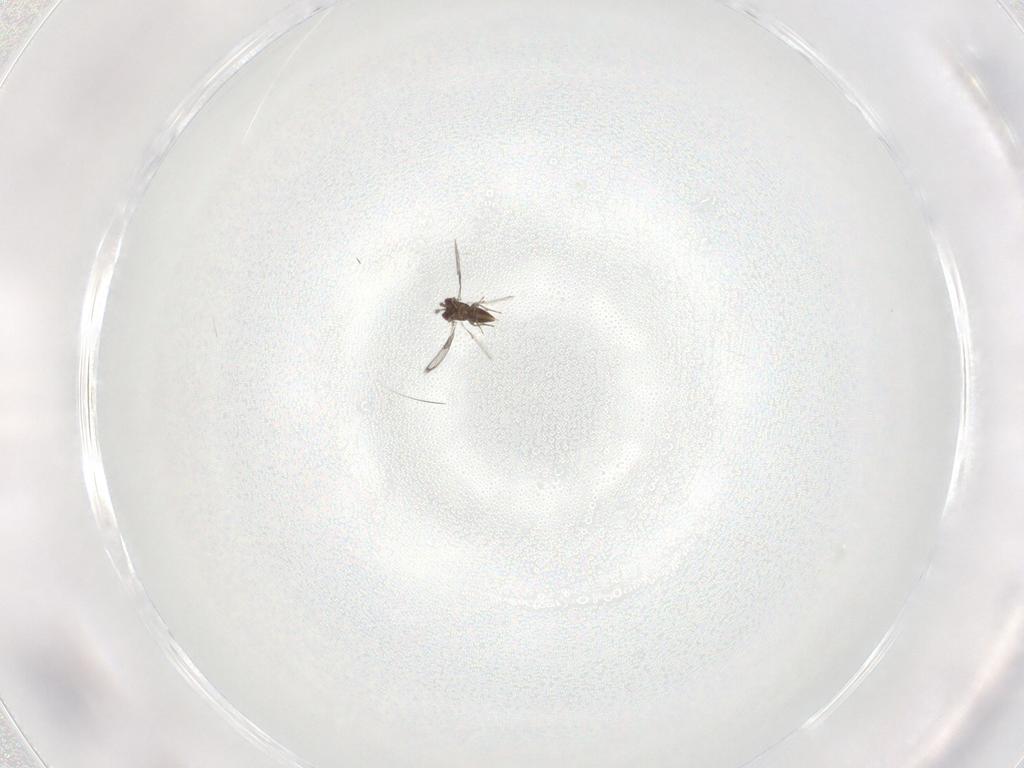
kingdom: Animalia
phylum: Arthropoda
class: Insecta
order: Hymenoptera
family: Trichogrammatidae
